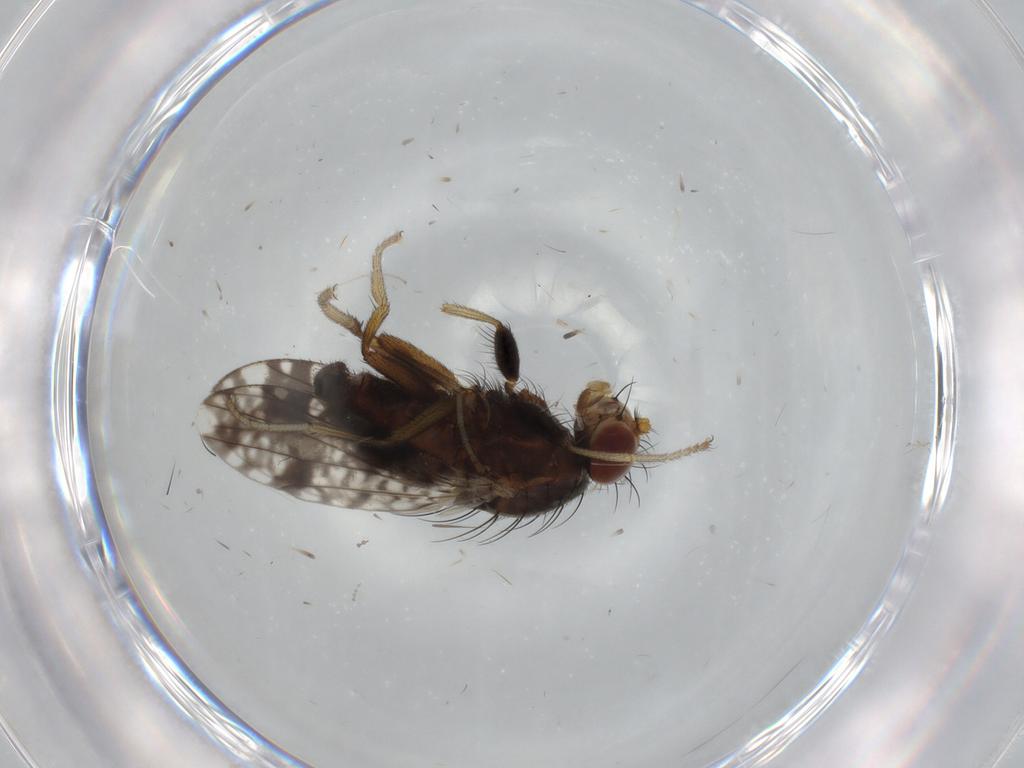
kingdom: Animalia
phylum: Arthropoda
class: Insecta
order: Diptera
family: Tephritidae
